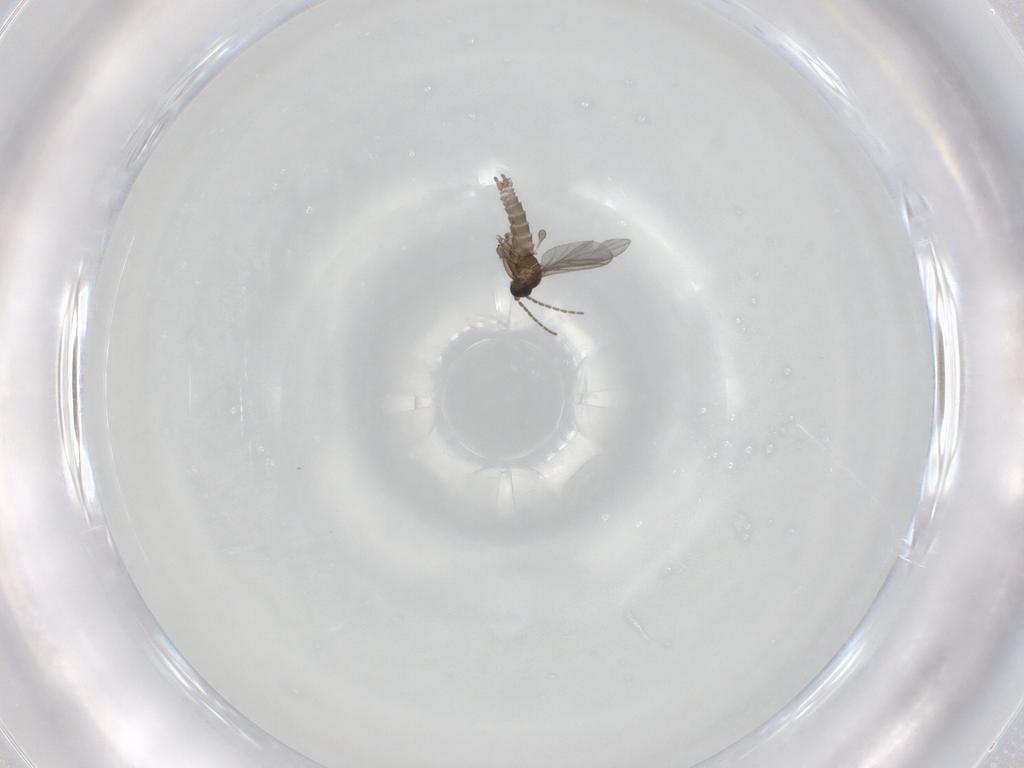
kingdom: Animalia
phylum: Arthropoda
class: Insecta
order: Diptera
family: Sciaridae
